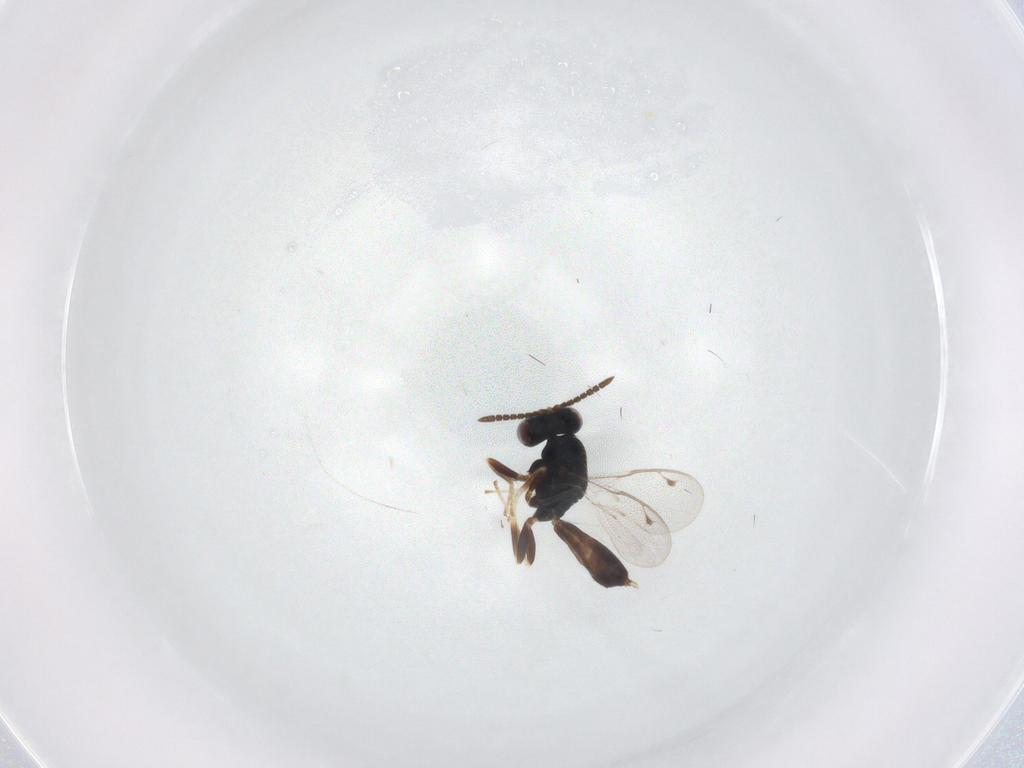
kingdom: Animalia
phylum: Arthropoda
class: Insecta
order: Hymenoptera
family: Pteromalidae
